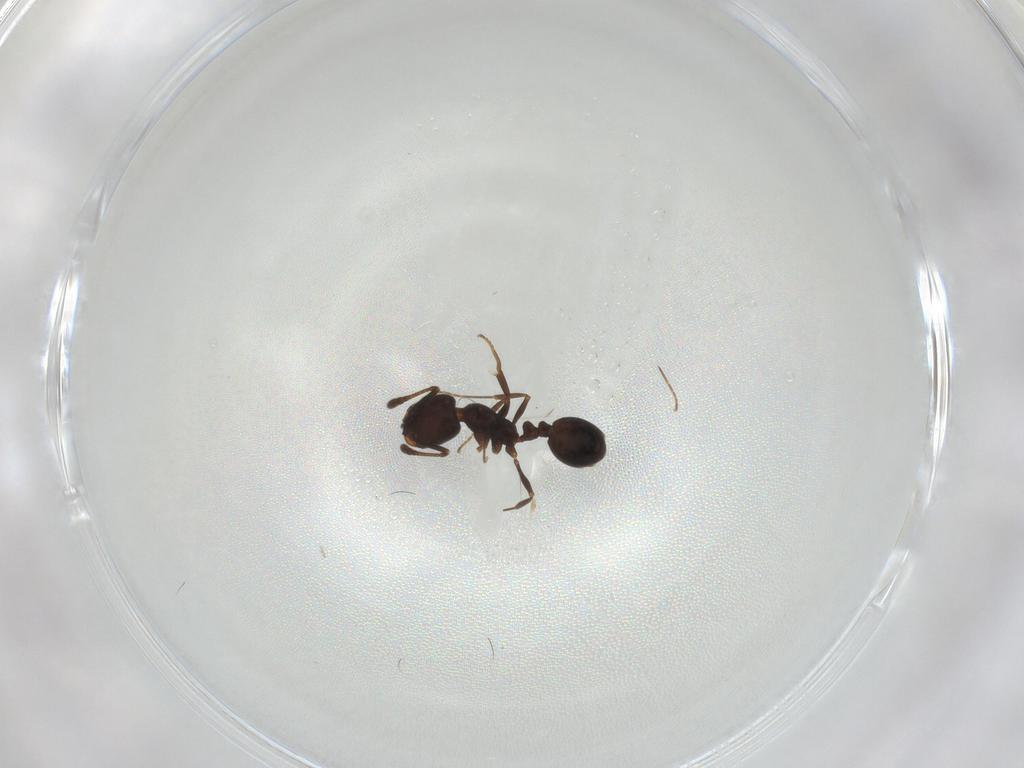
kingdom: Animalia
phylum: Arthropoda
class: Insecta
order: Hymenoptera
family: Formicidae
